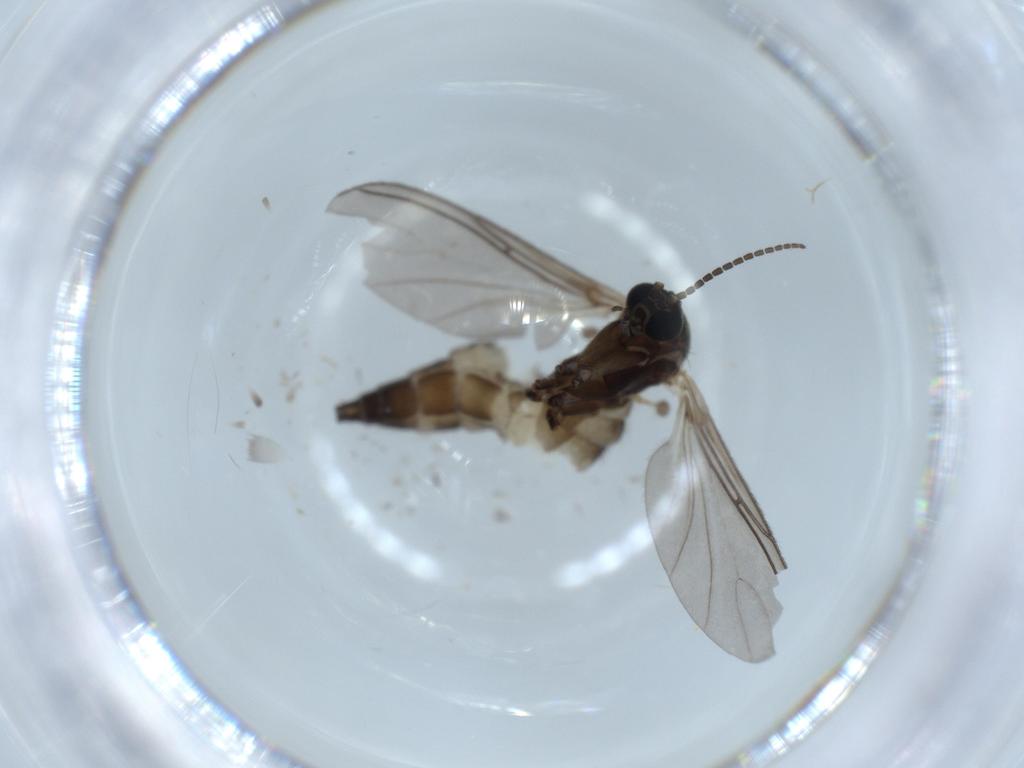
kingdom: Animalia
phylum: Arthropoda
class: Insecta
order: Diptera
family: Sciaridae
